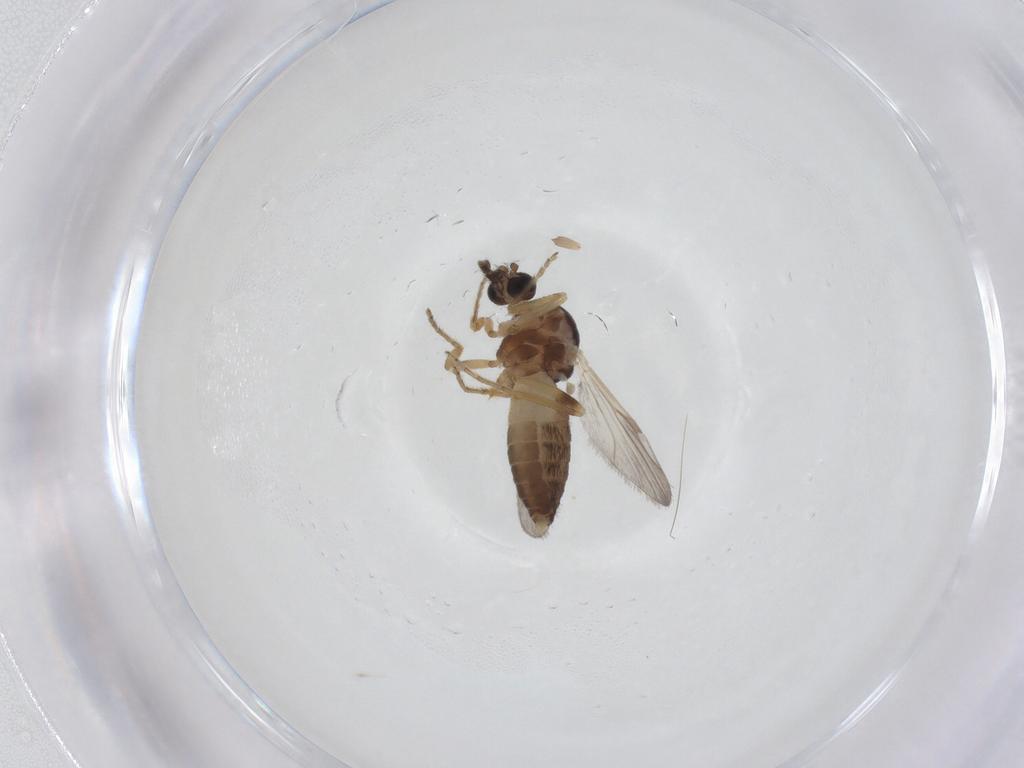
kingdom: Animalia
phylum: Arthropoda
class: Insecta
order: Diptera
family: Ceratopogonidae
